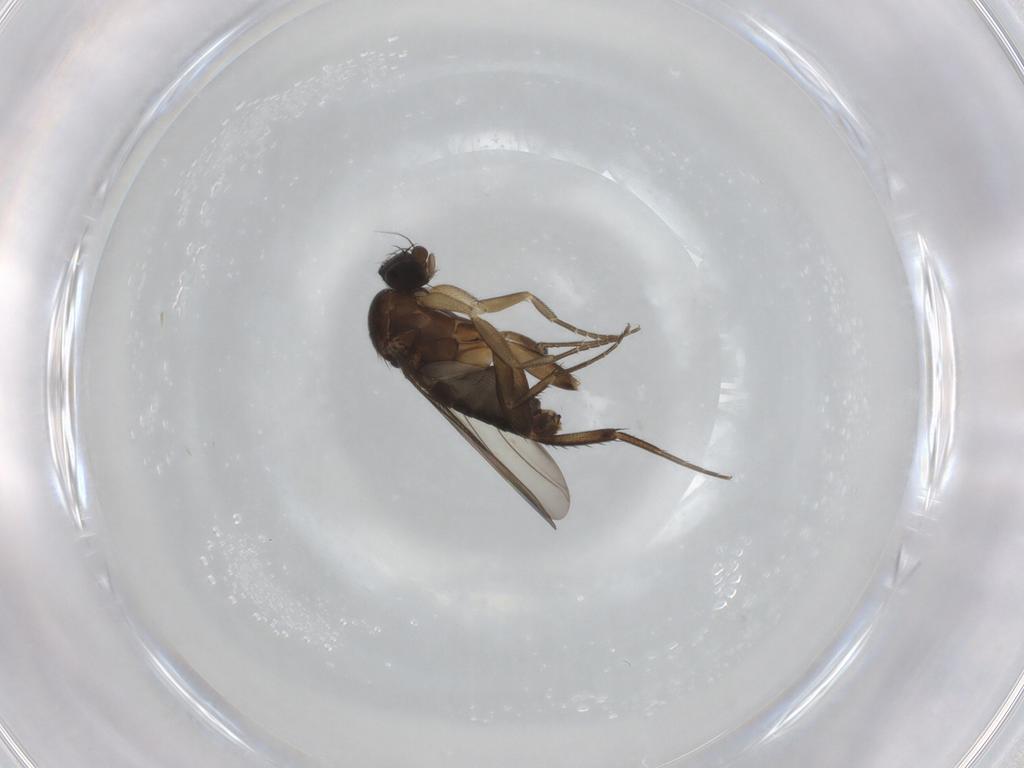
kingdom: Animalia
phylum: Arthropoda
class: Insecta
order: Diptera
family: Phoridae
